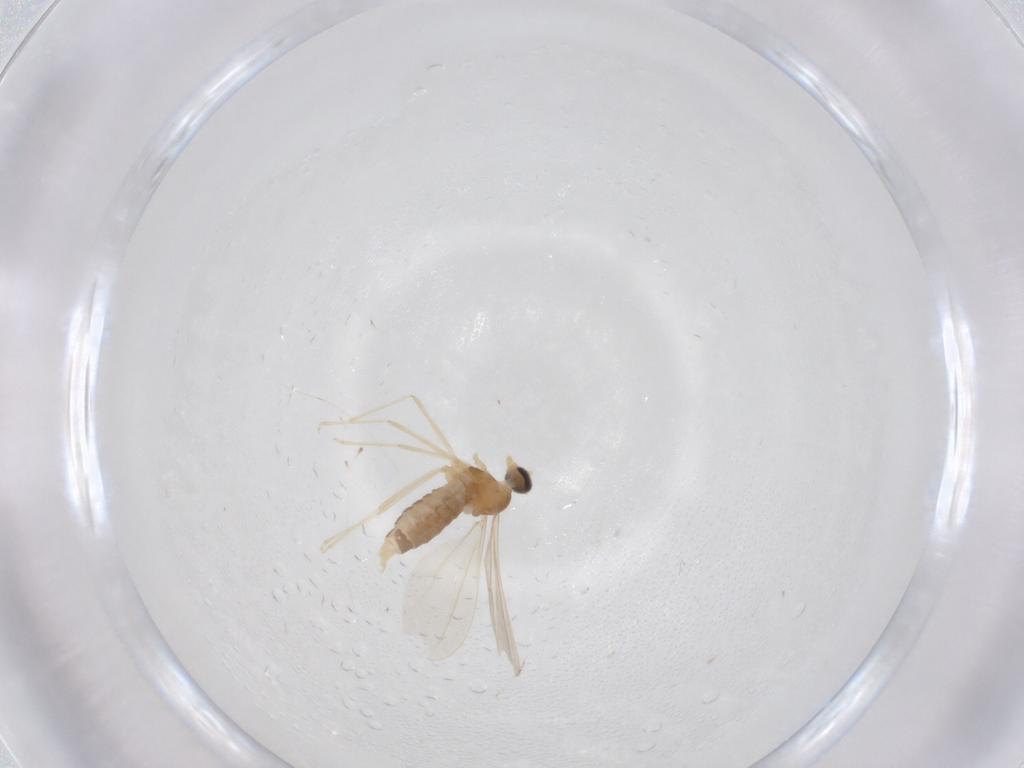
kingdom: Animalia
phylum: Arthropoda
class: Insecta
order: Diptera
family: Cecidomyiidae
